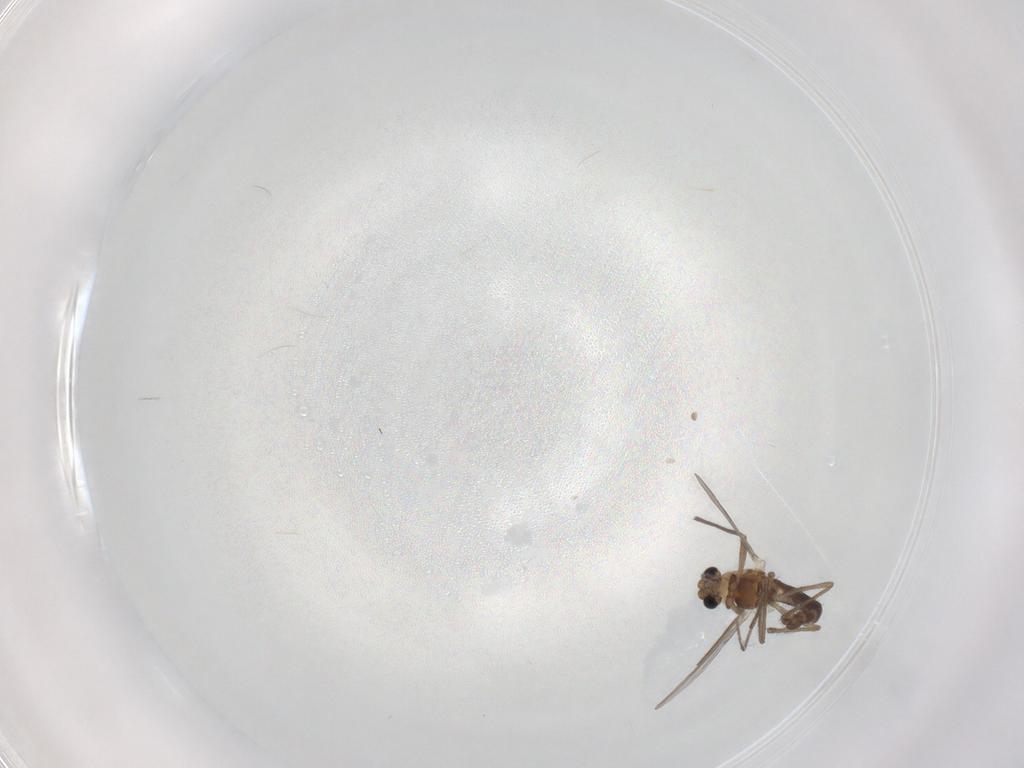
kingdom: Animalia
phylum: Arthropoda
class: Insecta
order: Diptera
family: Chironomidae
